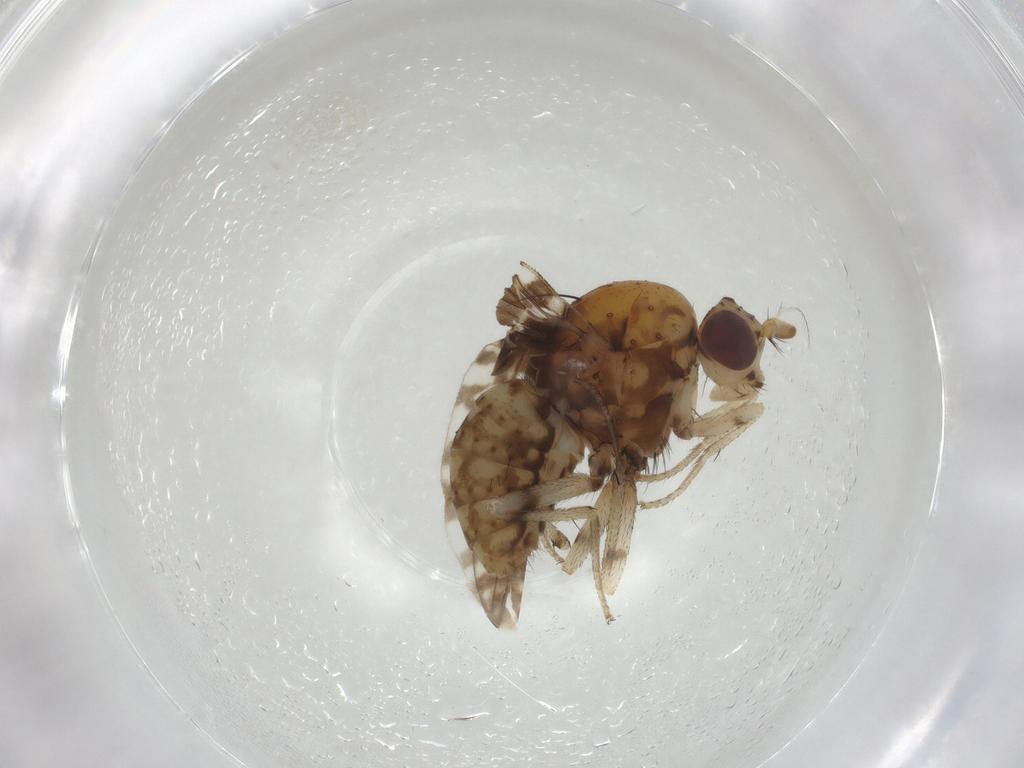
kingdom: Animalia
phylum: Arthropoda
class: Insecta
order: Diptera
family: Lauxaniidae
